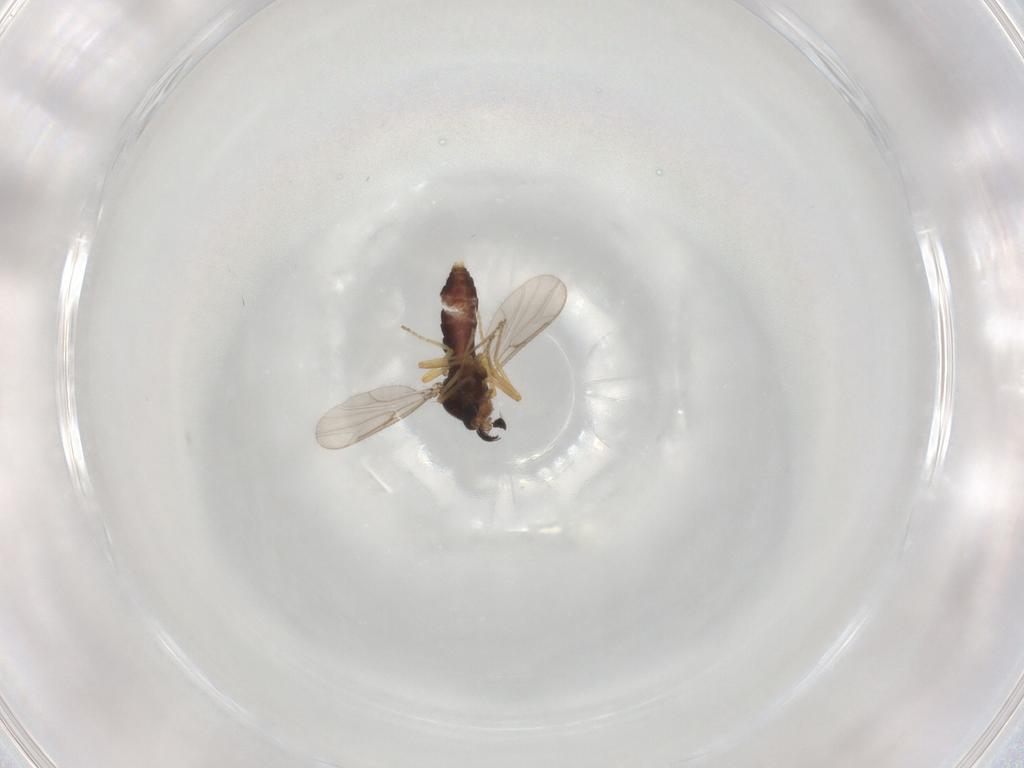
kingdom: Animalia
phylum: Arthropoda
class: Insecta
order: Diptera
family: Ceratopogonidae
